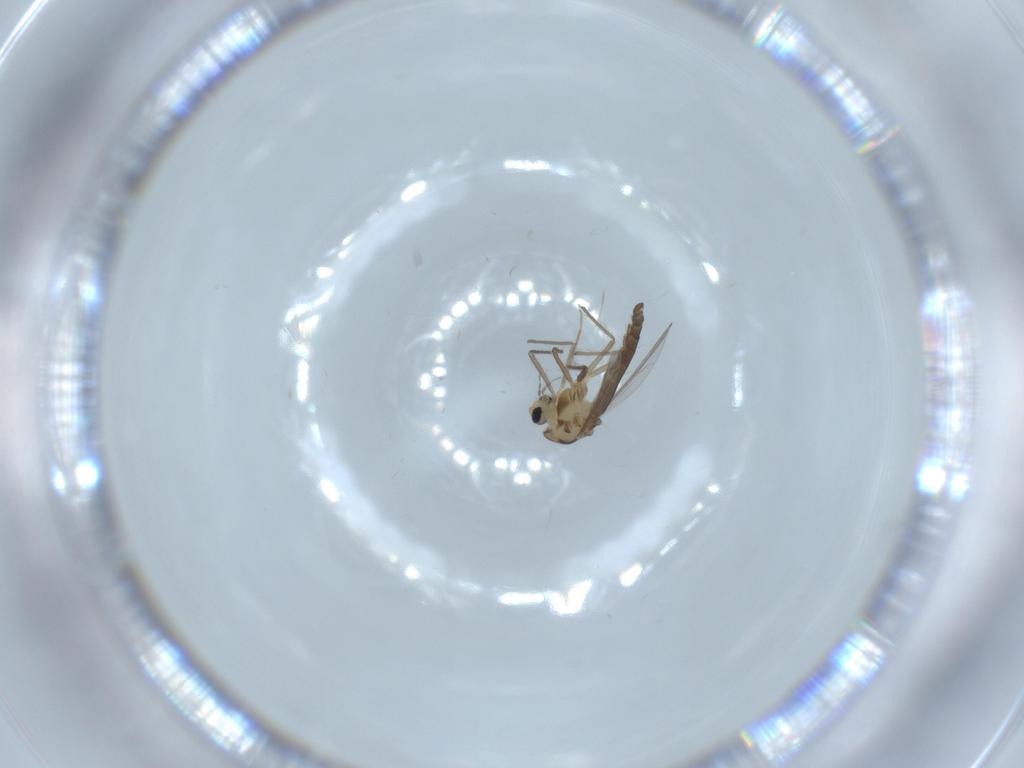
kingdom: Animalia
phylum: Arthropoda
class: Insecta
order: Diptera
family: Chironomidae
